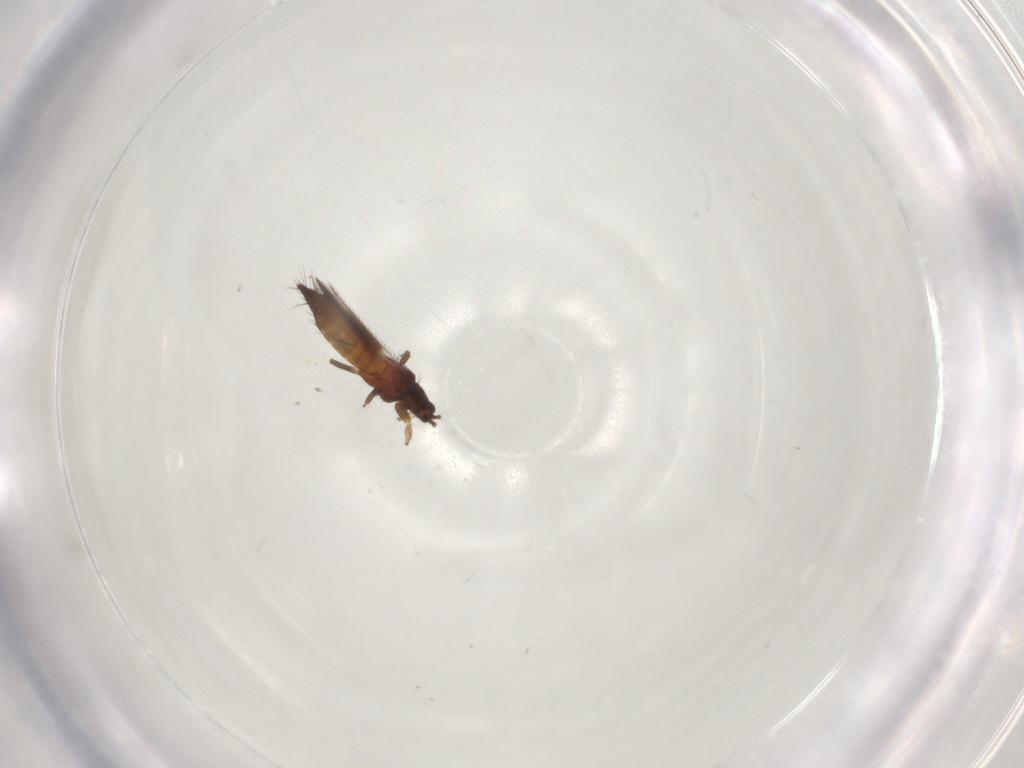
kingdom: Animalia
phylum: Arthropoda
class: Insecta
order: Thysanoptera
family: Thripidae
